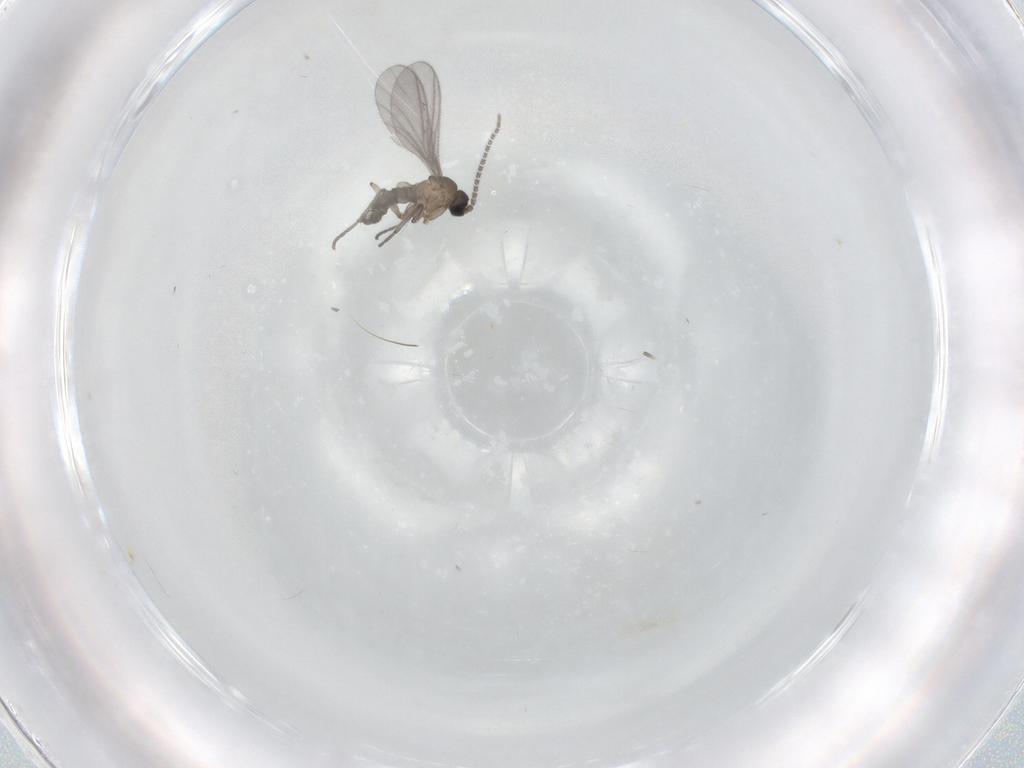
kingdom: Animalia
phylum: Arthropoda
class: Insecta
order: Diptera
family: Sciaridae
